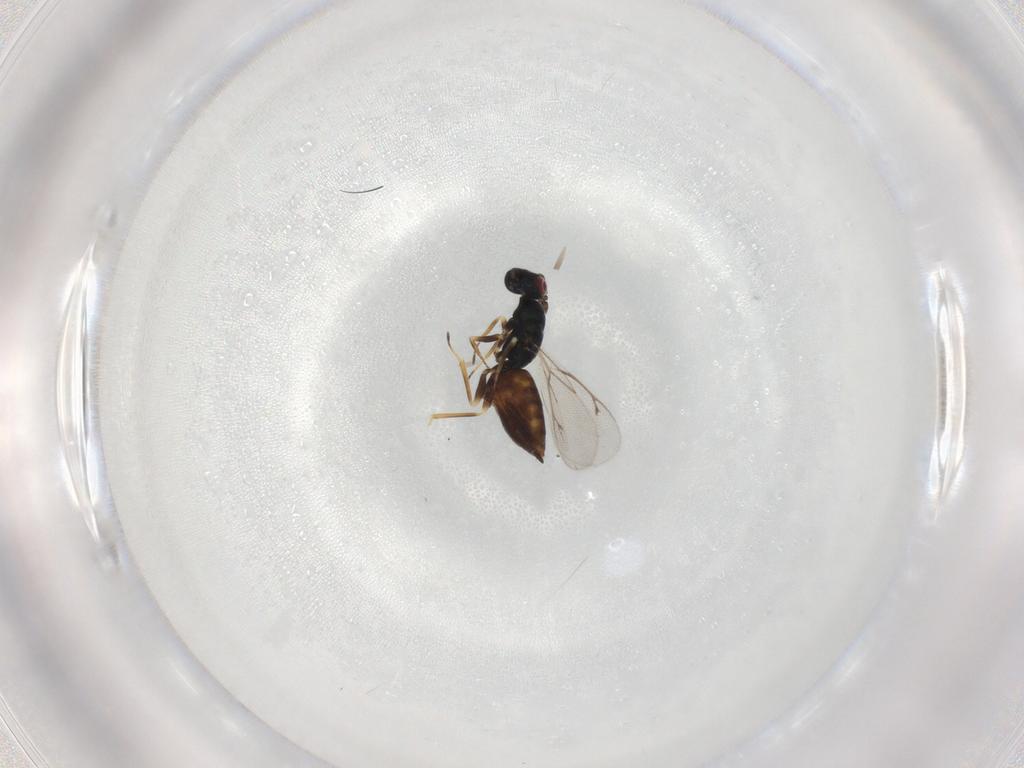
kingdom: Animalia
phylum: Arthropoda
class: Insecta
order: Hymenoptera
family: Eulophidae
